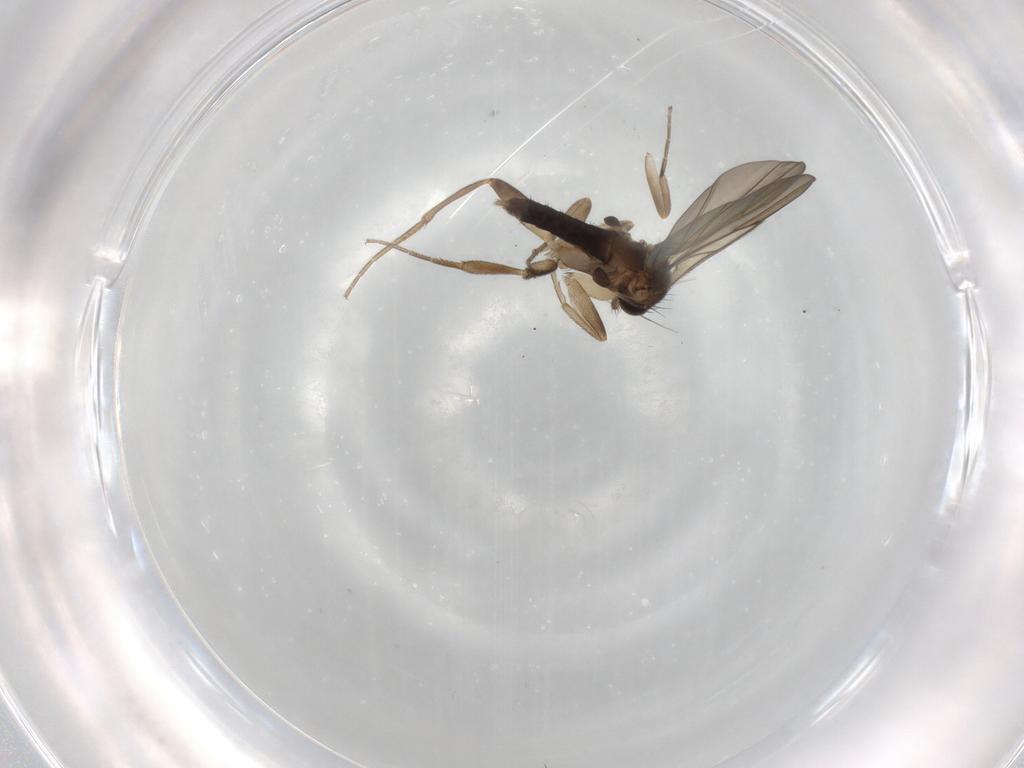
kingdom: Animalia
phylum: Arthropoda
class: Insecta
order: Diptera
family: Phoridae
